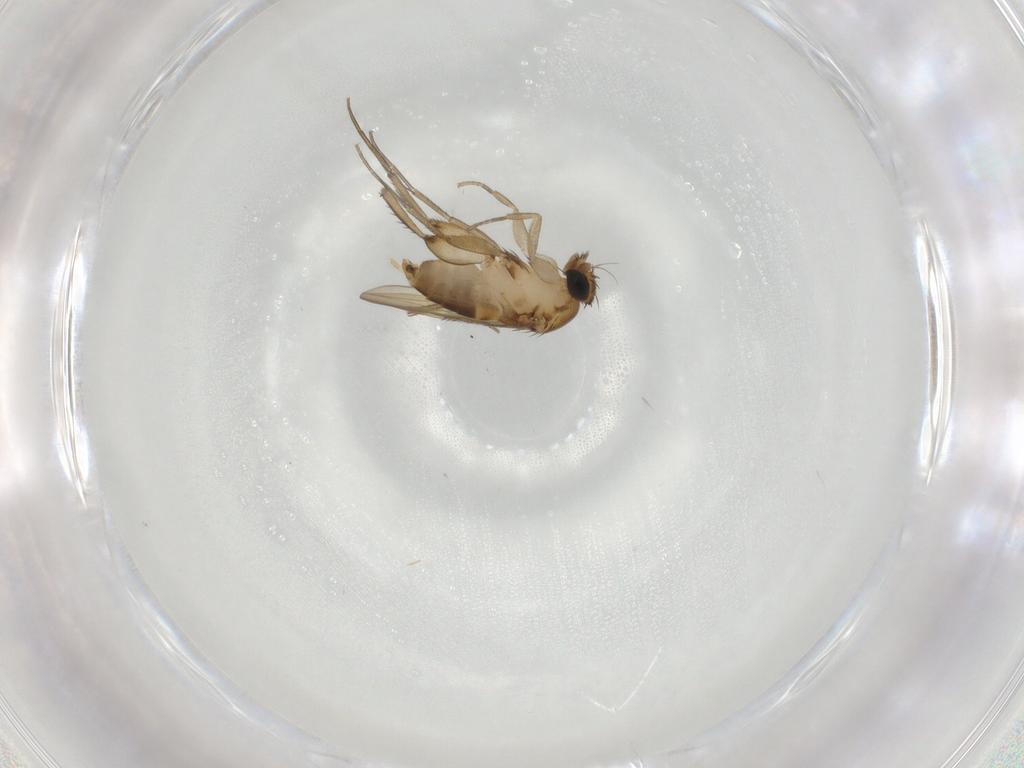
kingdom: Animalia
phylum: Arthropoda
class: Insecta
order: Diptera
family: Phoridae
